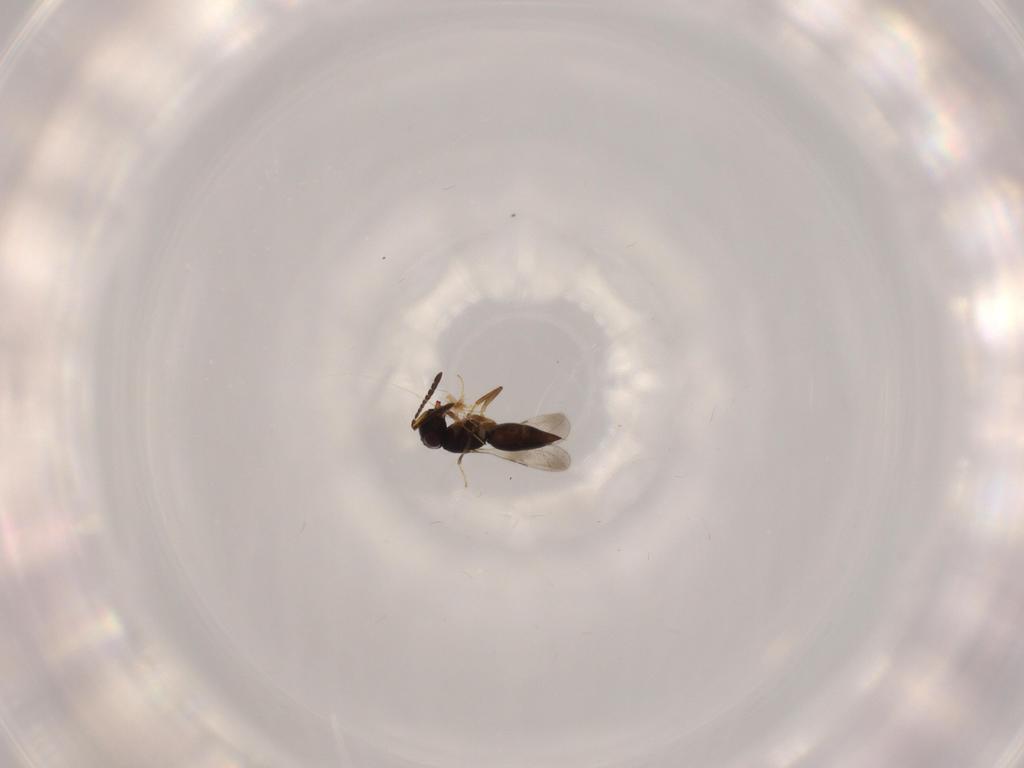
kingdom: Animalia
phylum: Arthropoda
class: Insecta
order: Hymenoptera
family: Ceraphronidae
